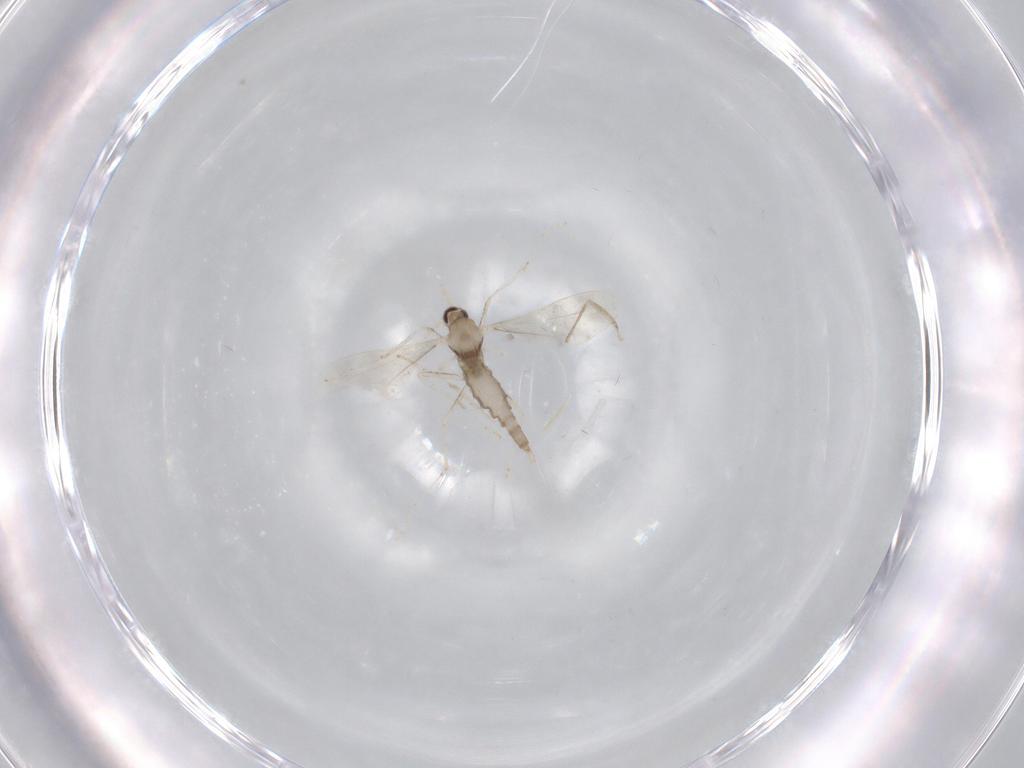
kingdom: Animalia
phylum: Arthropoda
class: Insecta
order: Diptera
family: Cecidomyiidae
